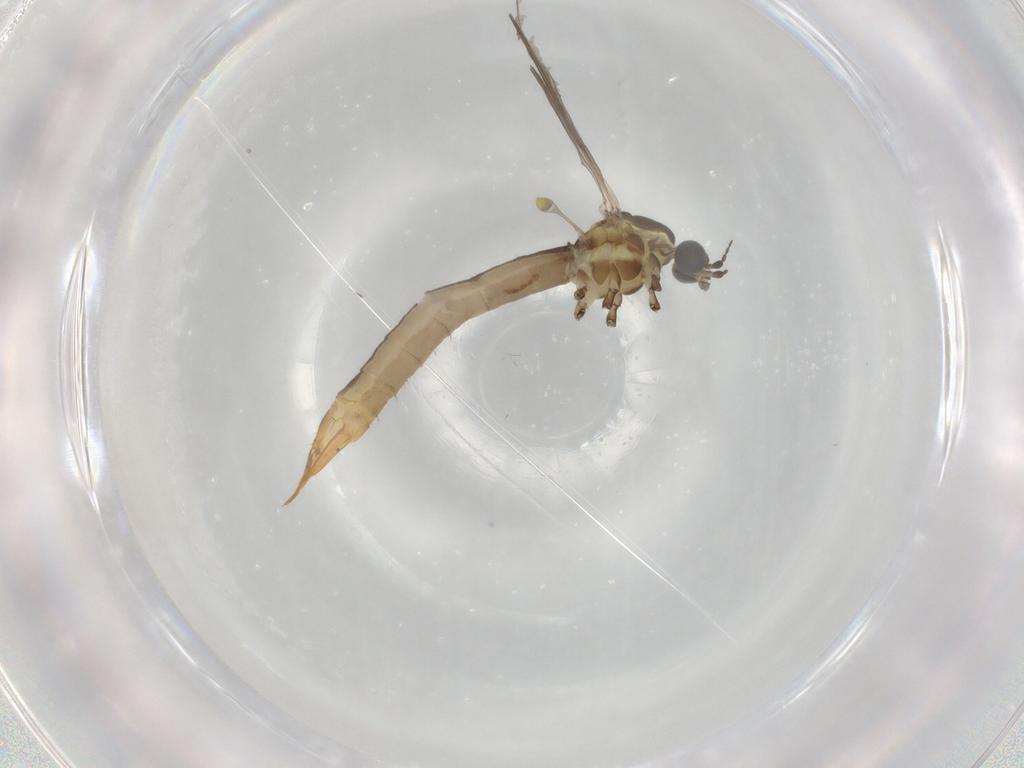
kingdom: Animalia
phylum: Arthropoda
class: Insecta
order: Diptera
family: Limoniidae
